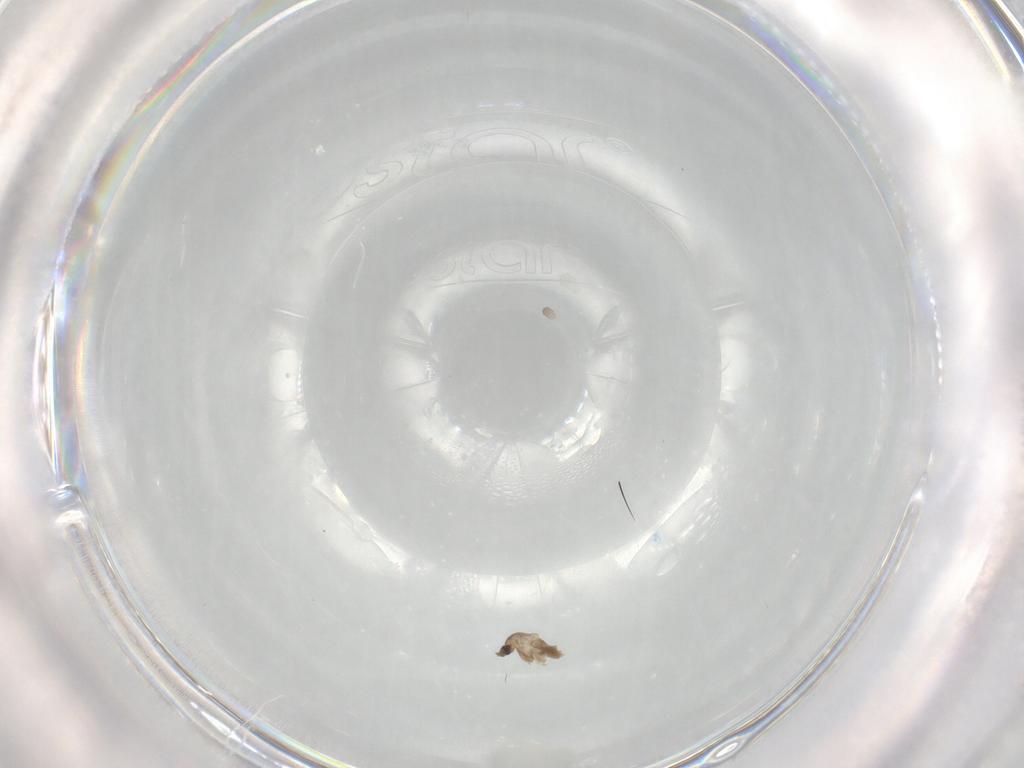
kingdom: Animalia
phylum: Arthropoda
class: Insecta
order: Diptera
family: Cecidomyiidae
